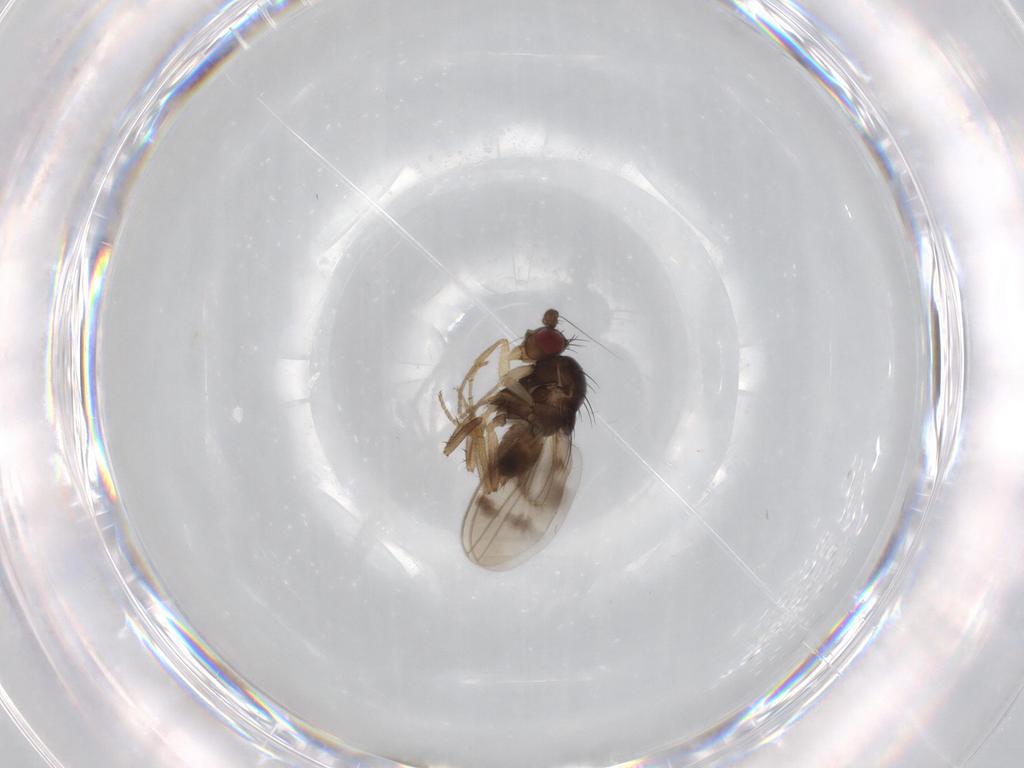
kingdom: Animalia
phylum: Arthropoda
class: Insecta
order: Diptera
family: Sphaeroceridae
